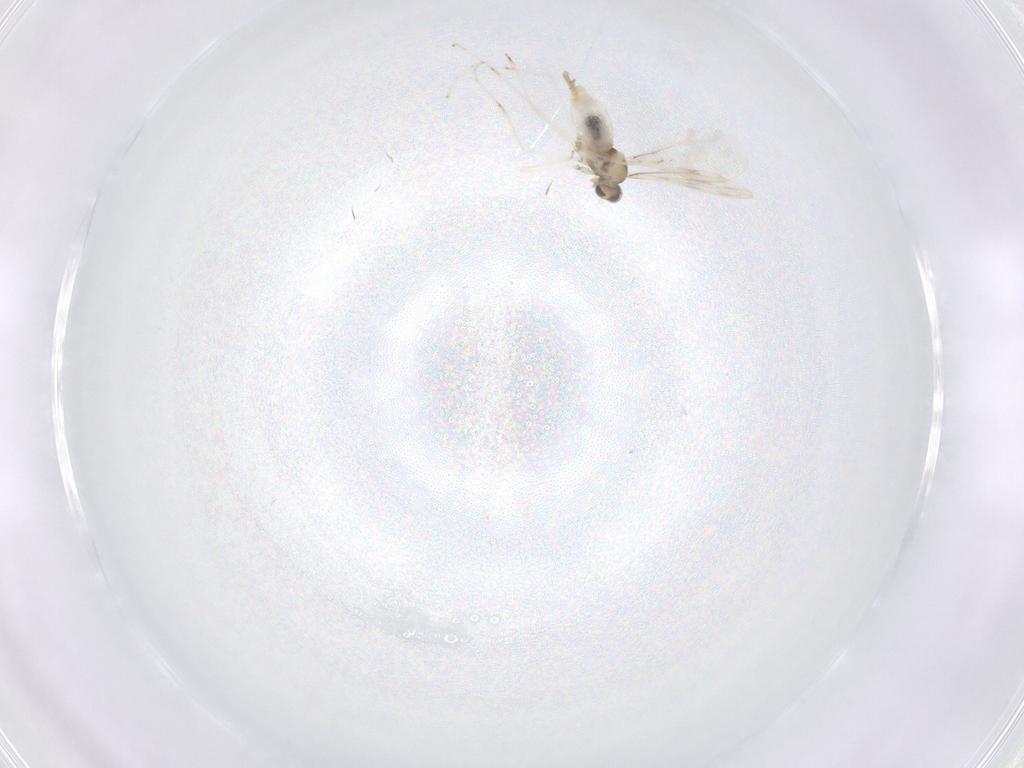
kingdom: Animalia
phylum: Arthropoda
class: Insecta
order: Diptera
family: Cecidomyiidae
